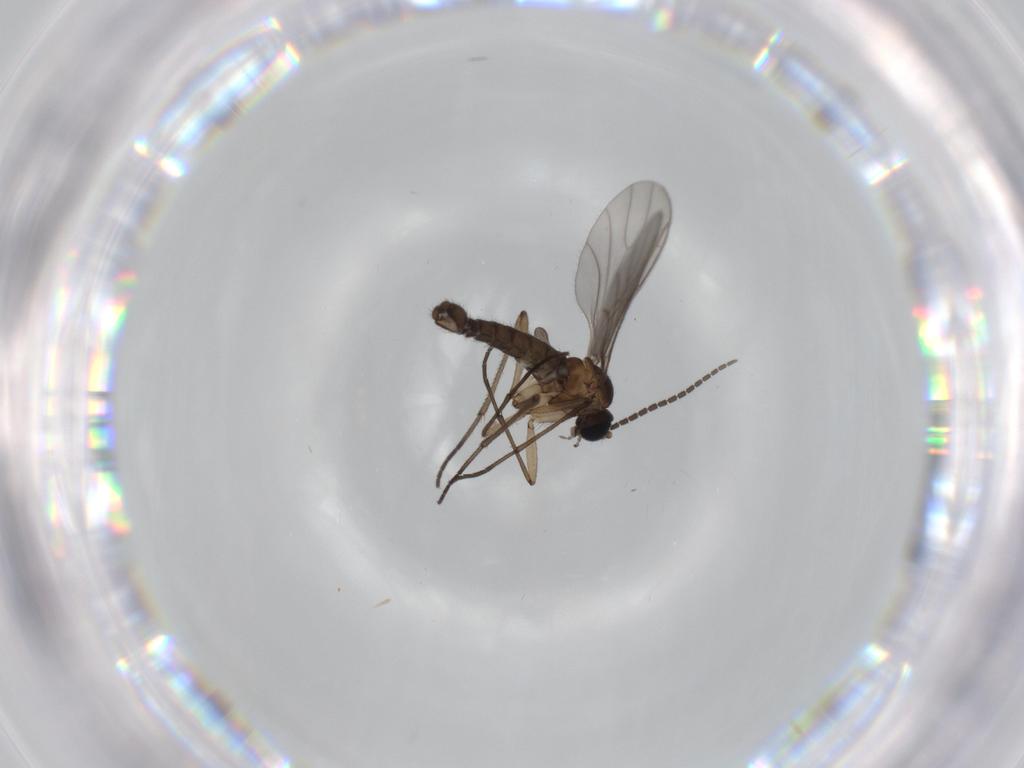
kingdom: Animalia
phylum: Arthropoda
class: Insecta
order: Diptera
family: Sciaridae
